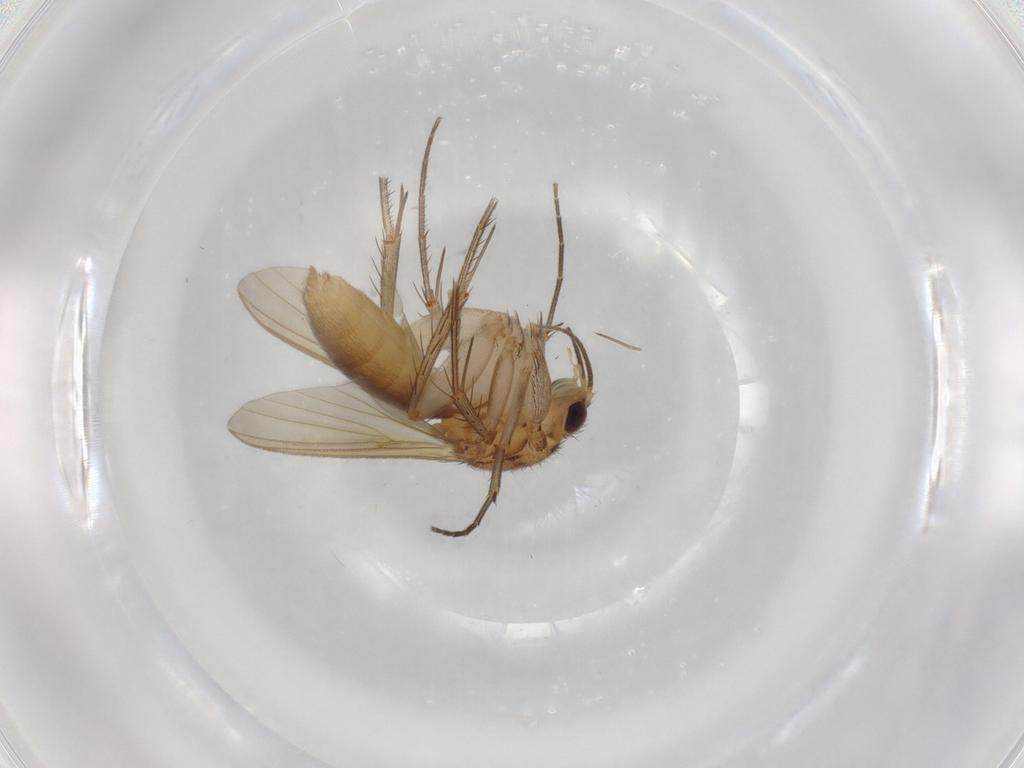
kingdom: Animalia
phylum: Arthropoda
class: Insecta
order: Diptera
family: Mycetophilidae
